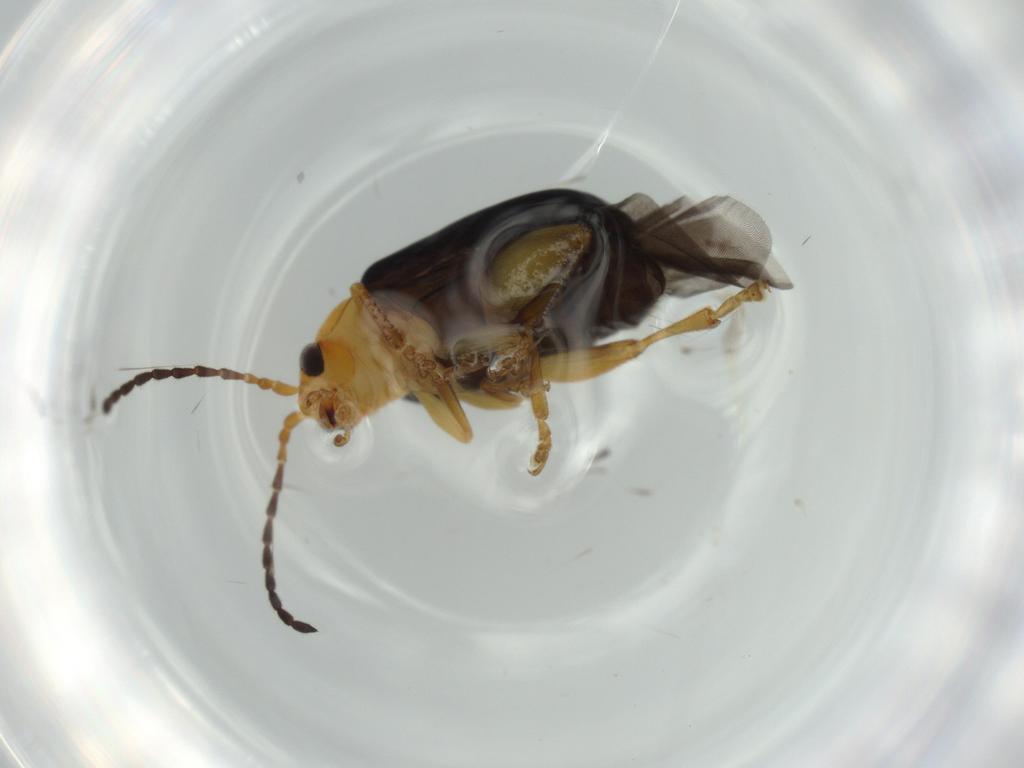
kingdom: Animalia
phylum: Arthropoda
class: Insecta
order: Coleoptera
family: Chrysomelidae
